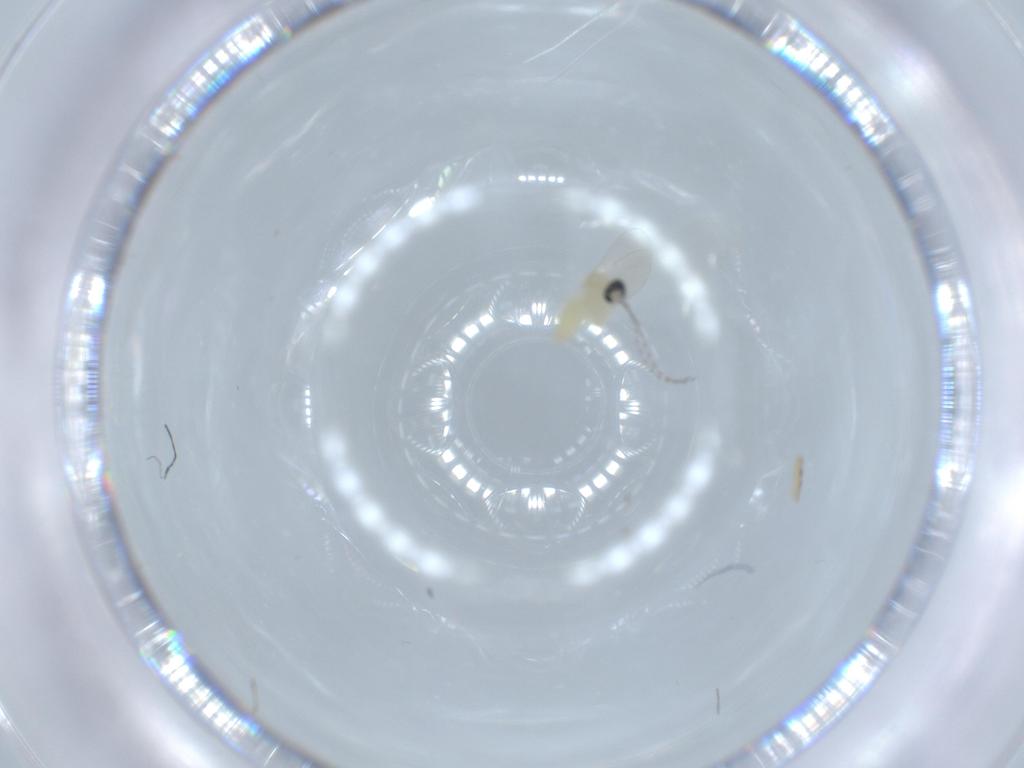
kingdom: Animalia
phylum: Arthropoda
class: Insecta
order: Diptera
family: Cecidomyiidae
